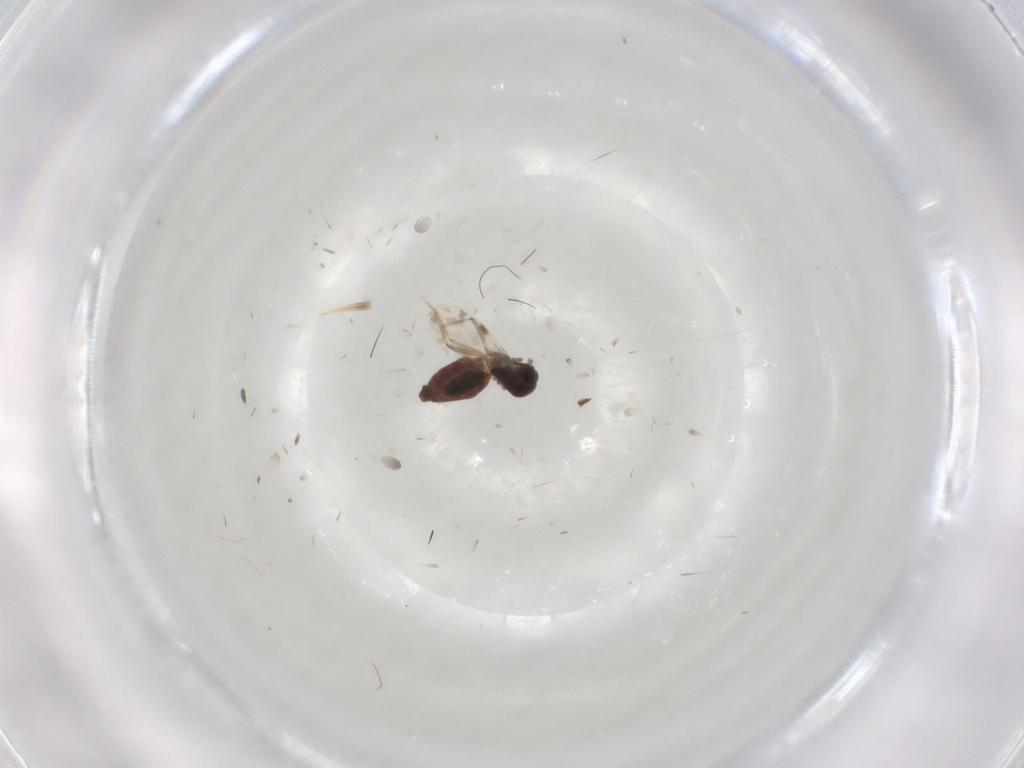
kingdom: Animalia
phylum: Arthropoda
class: Insecta
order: Diptera
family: Glossinidae
